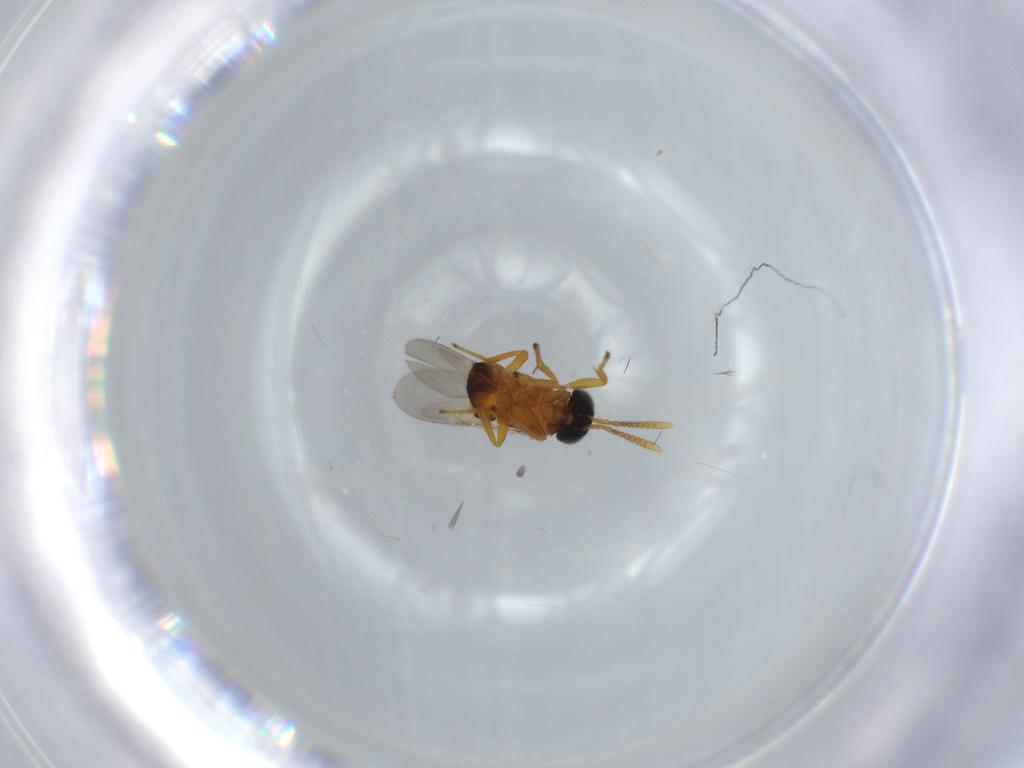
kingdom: Animalia
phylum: Arthropoda
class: Insecta
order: Hymenoptera
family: Encyrtidae
